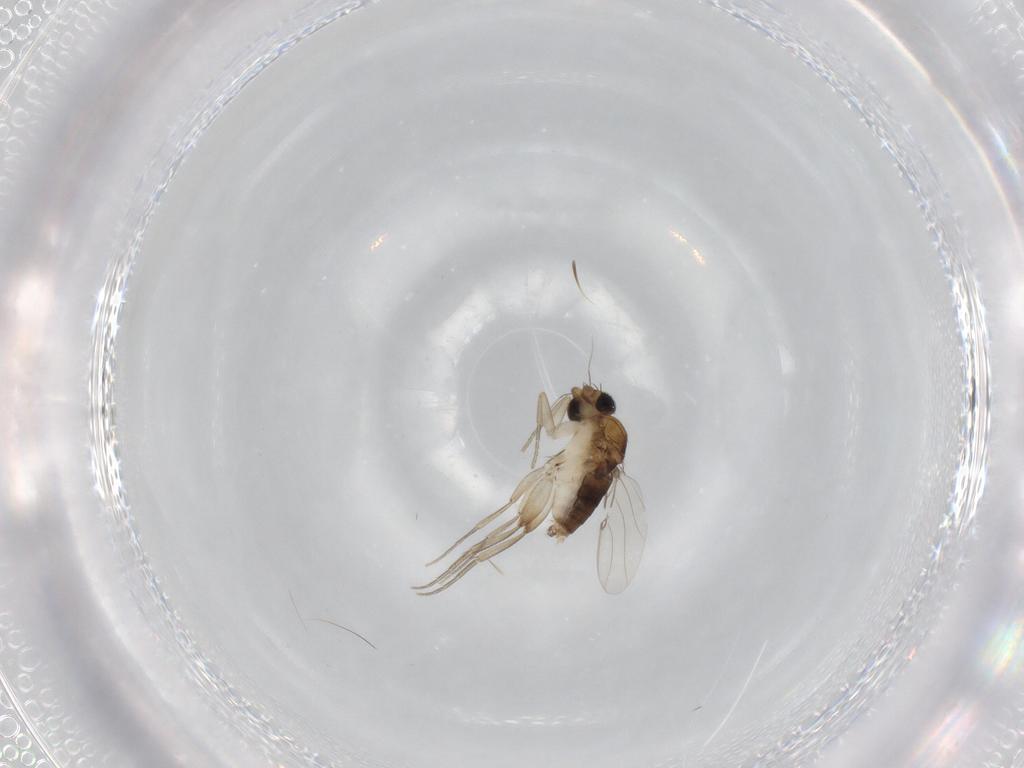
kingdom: Animalia
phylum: Arthropoda
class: Insecta
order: Diptera
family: Phoridae
